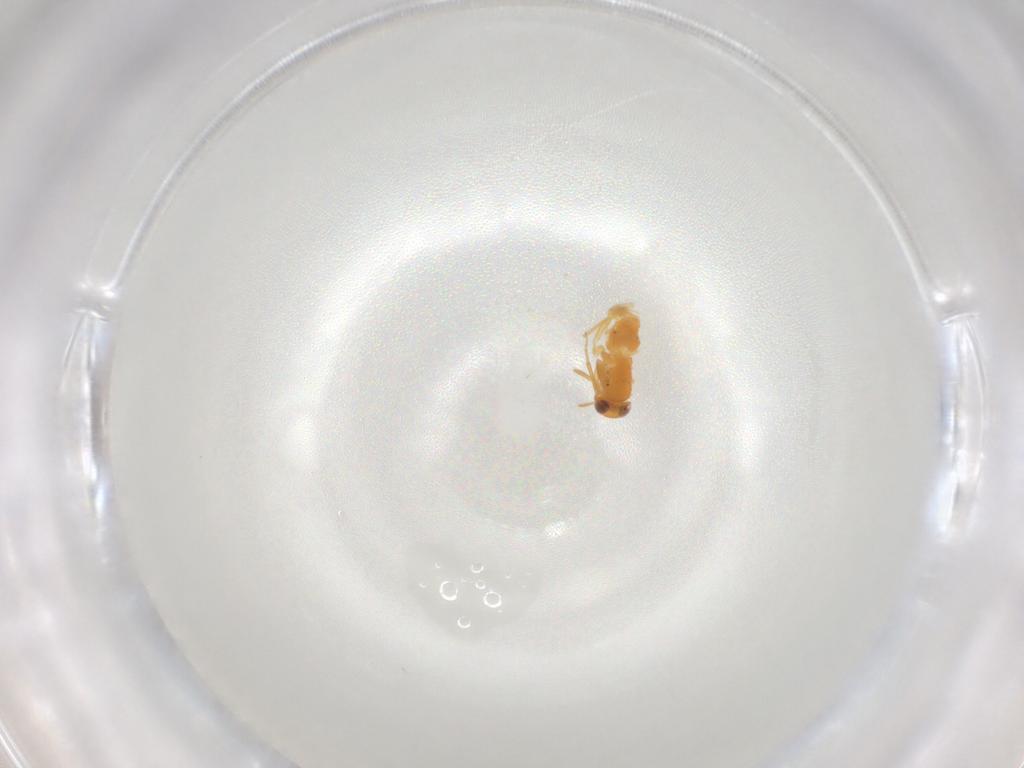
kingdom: Animalia
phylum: Arthropoda
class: Insecta
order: Hymenoptera
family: Encyrtidae
